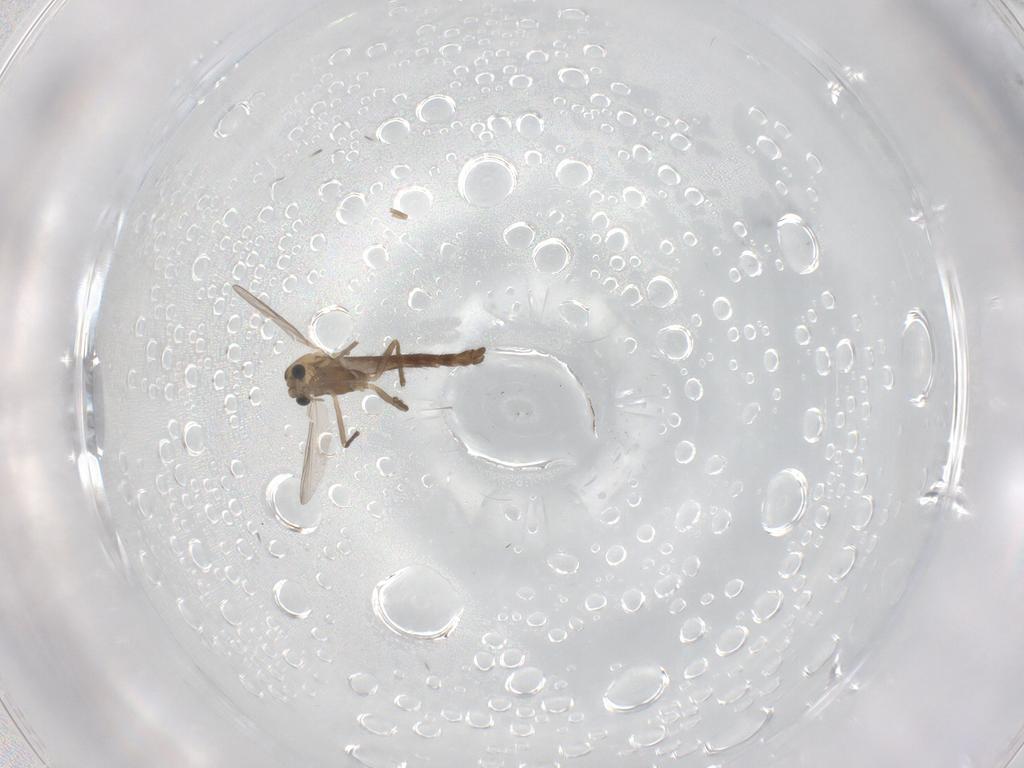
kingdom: Animalia
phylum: Arthropoda
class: Insecta
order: Diptera
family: Chironomidae
